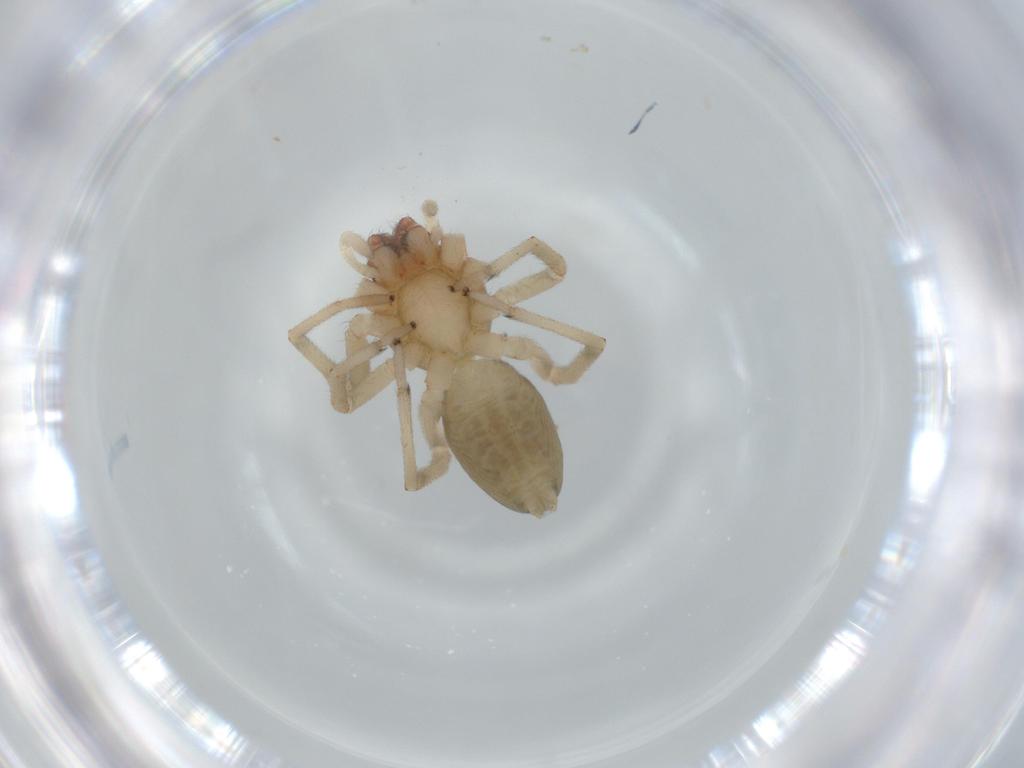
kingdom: Animalia
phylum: Arthropoda
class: Arachnida
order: Araneae
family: Trachelidae
